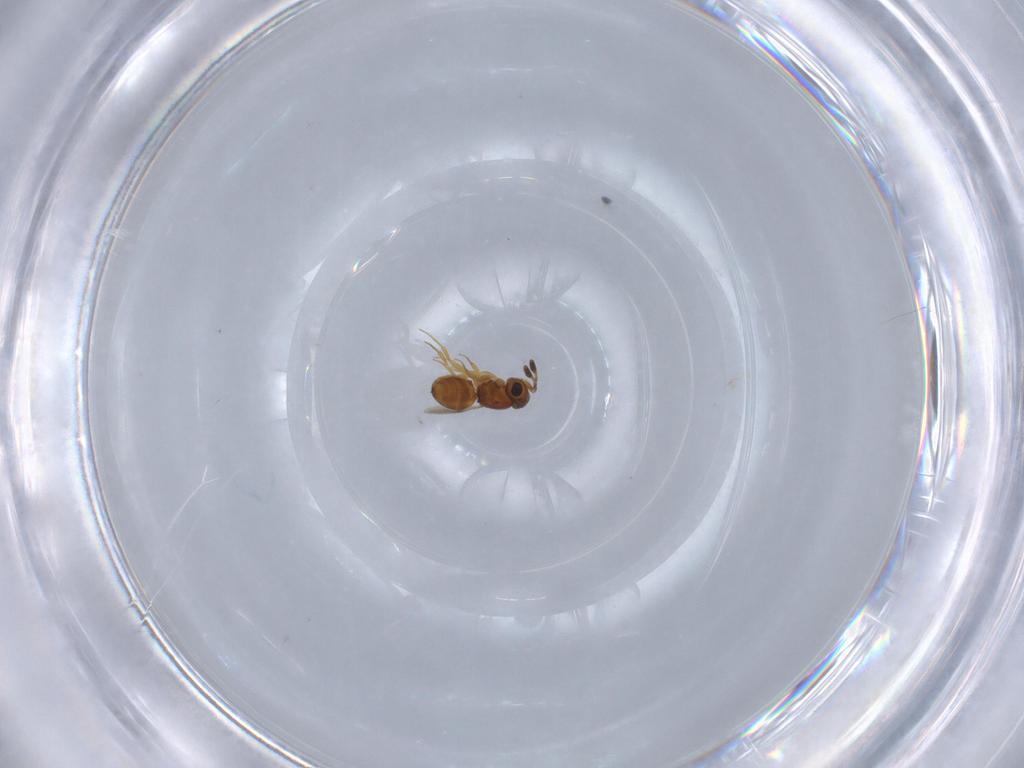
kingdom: Animalia
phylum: Arthropoda
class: Insecta
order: Hymenoptera
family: Scelionidae
